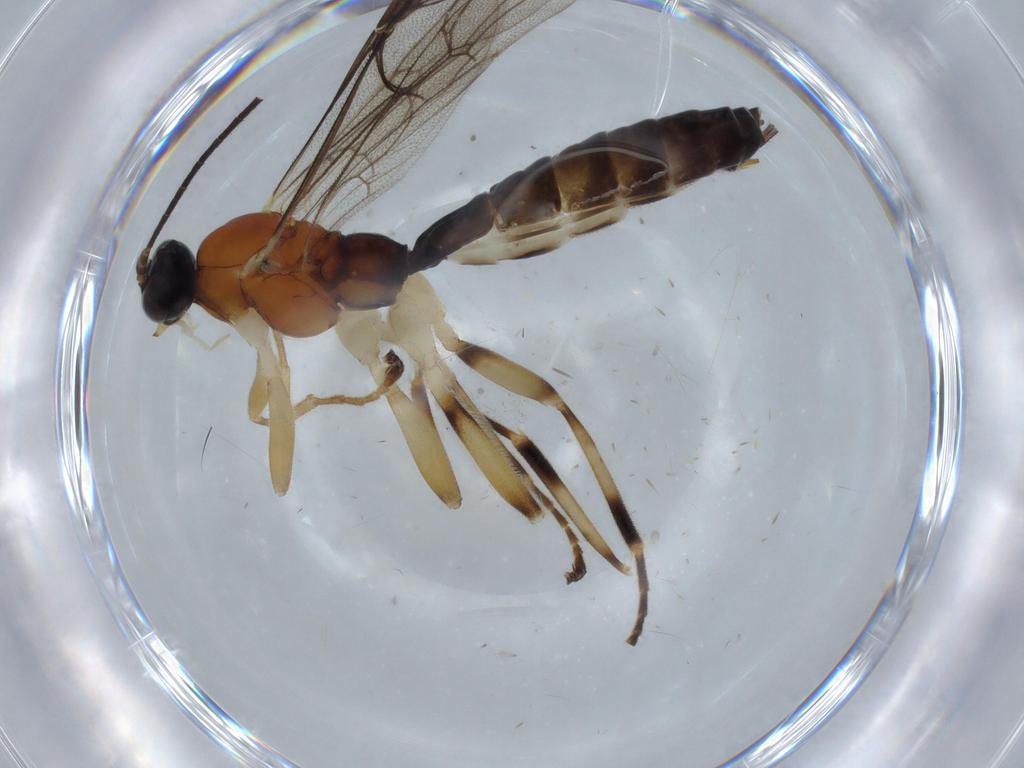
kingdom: Animalia
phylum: Arthropoda
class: Insecta
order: Hymenoptera
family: Ichneumonidae
